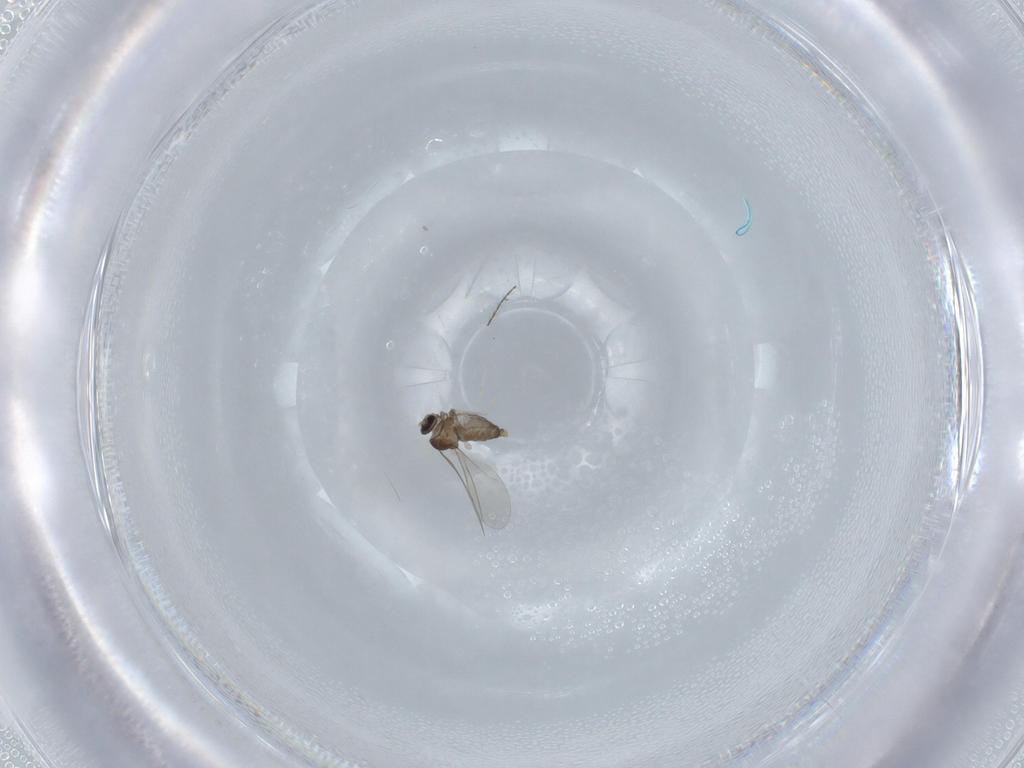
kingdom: Animalia
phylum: Arthropoda
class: Insecta
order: Diptera
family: Cecidomyiidae
